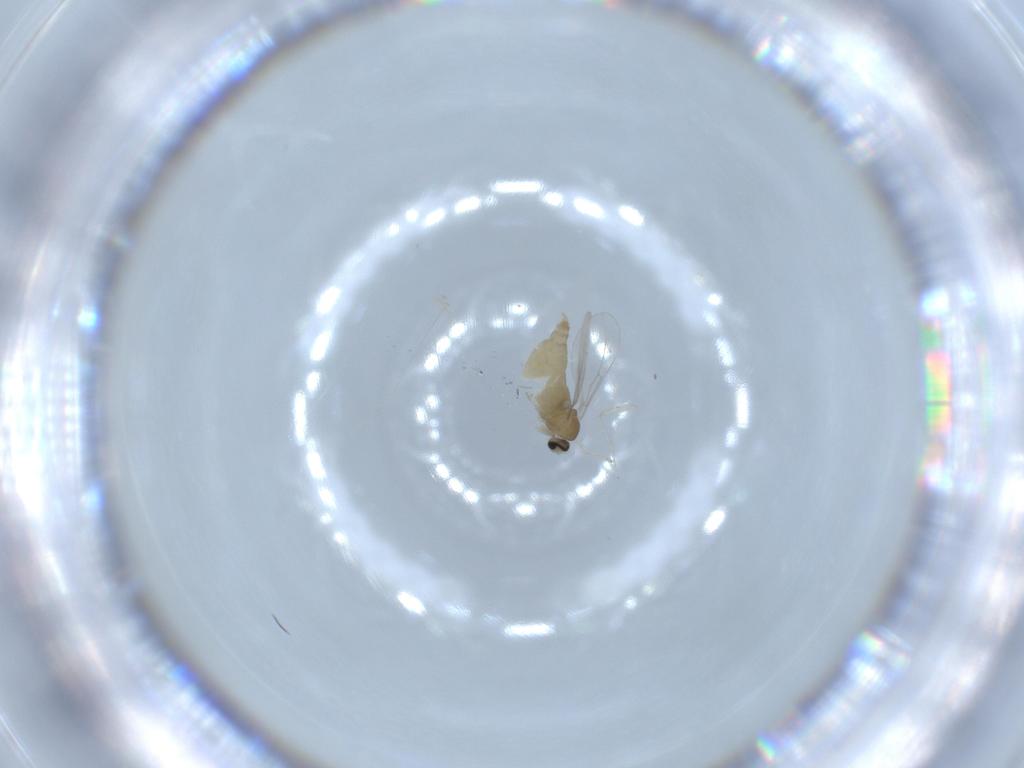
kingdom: Animalia
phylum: Arthropoda
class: Insecta
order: Diptera
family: Cecidomyiidae
